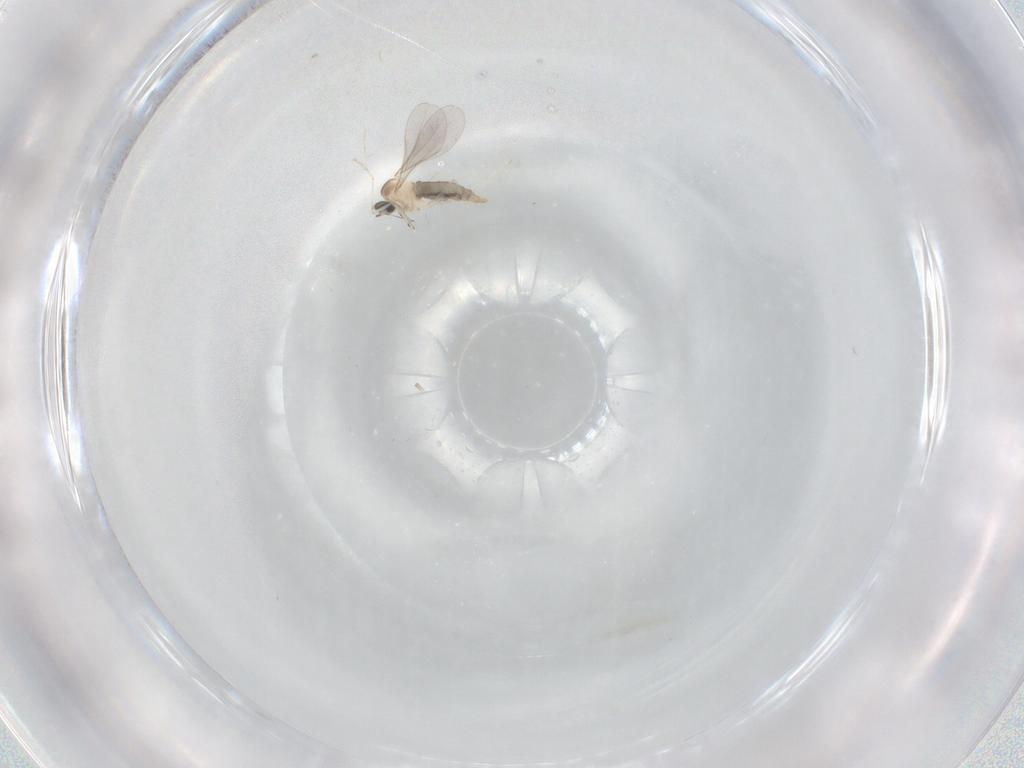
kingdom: Animalia
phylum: Arthropoda
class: Insecta
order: Diptera
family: Cecidomyiidae
